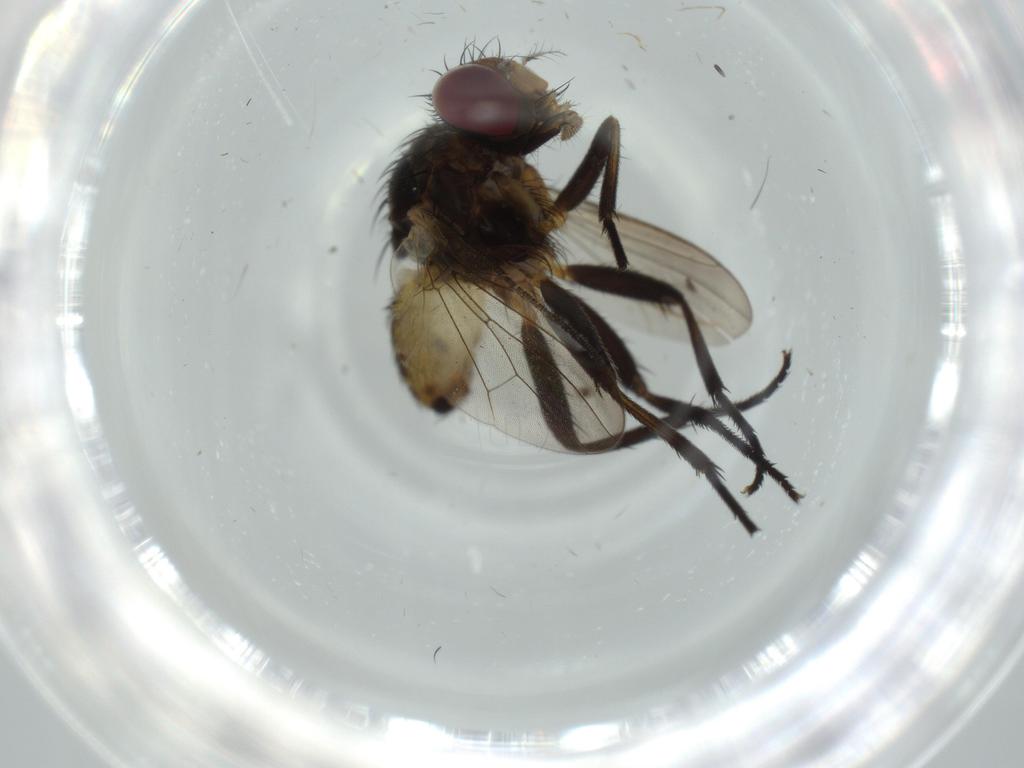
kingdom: Animalia
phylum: Arthropoda
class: Insecta
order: Diptera
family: Anthomyiidae
